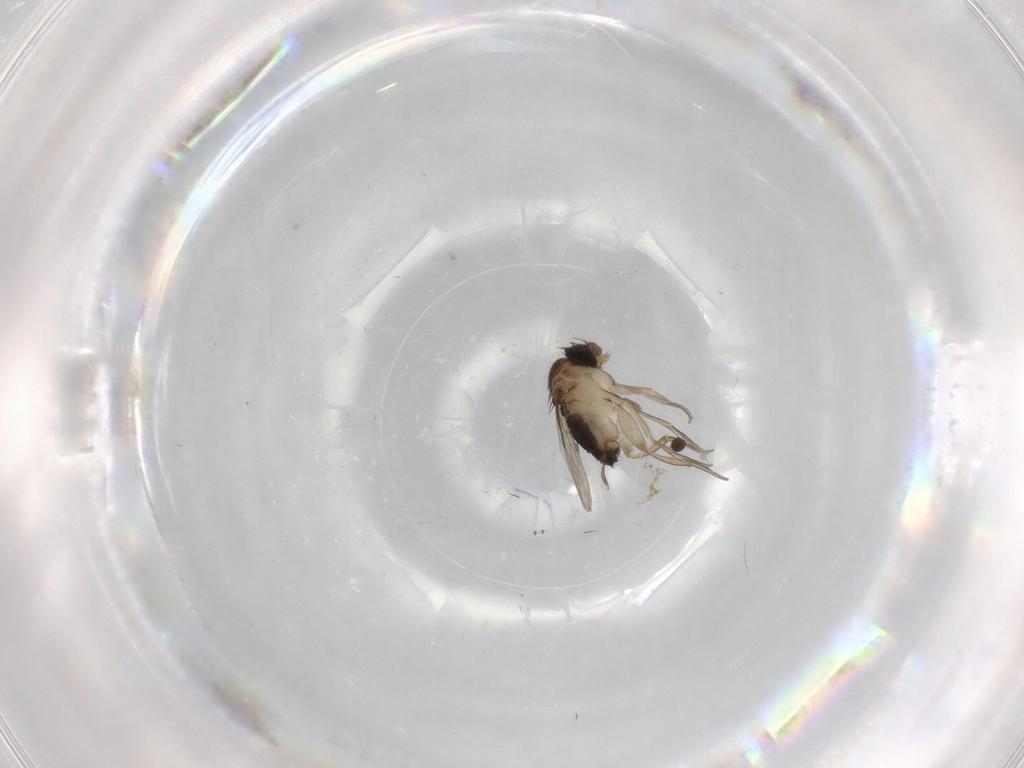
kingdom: Animalia
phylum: Arthropoda
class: Insecta
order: Diptera
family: Psychodidae
